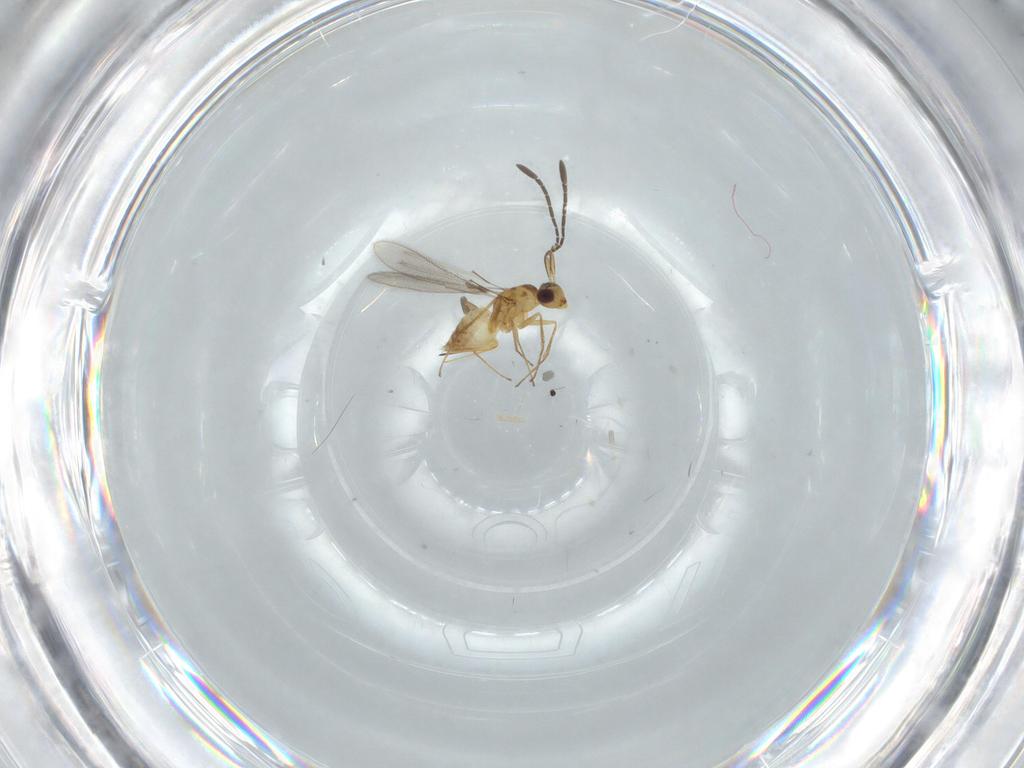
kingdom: Animalia
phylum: Arthropoda
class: Insecta
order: Hymenoptera
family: Mymaridae
